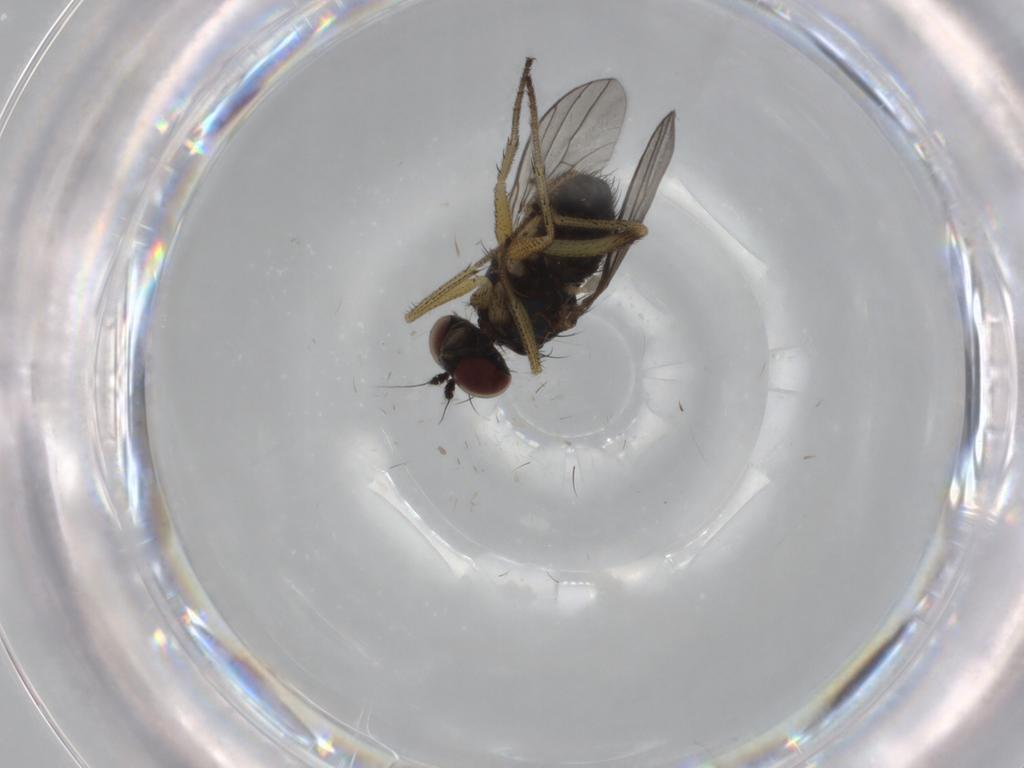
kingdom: Animalia
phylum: Arthropoda
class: Insecta
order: Diptera
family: Dolichopodidae
